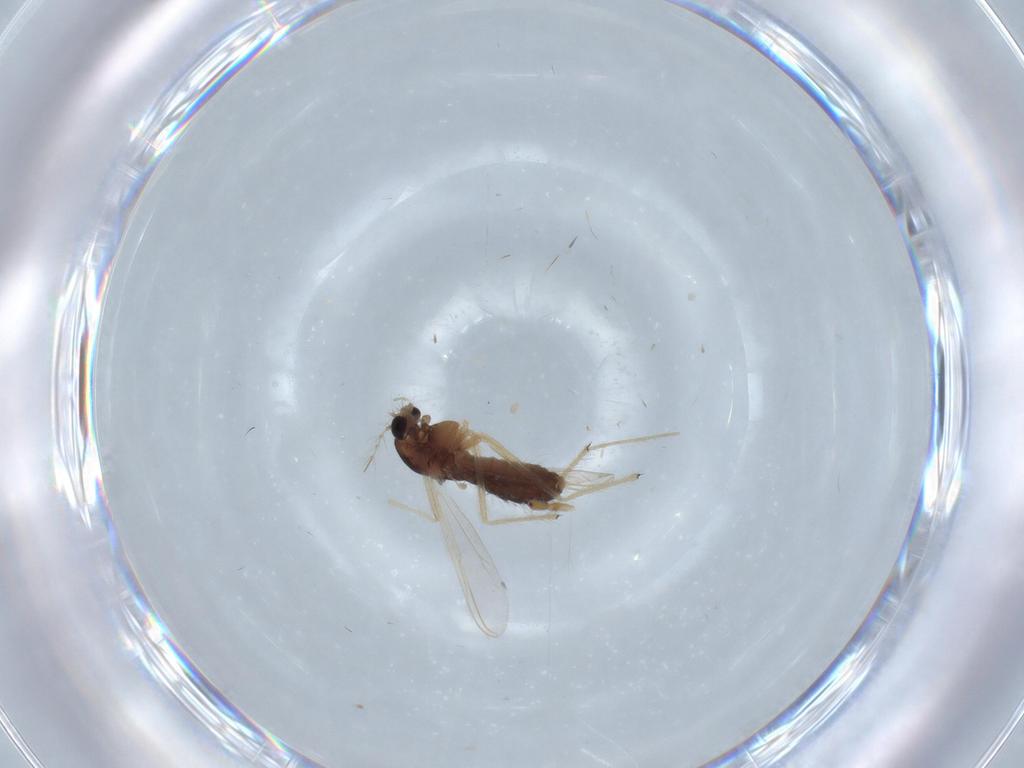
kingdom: Animalia
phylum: Arthropoda
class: Insecta
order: Diptera
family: Chironomidae
